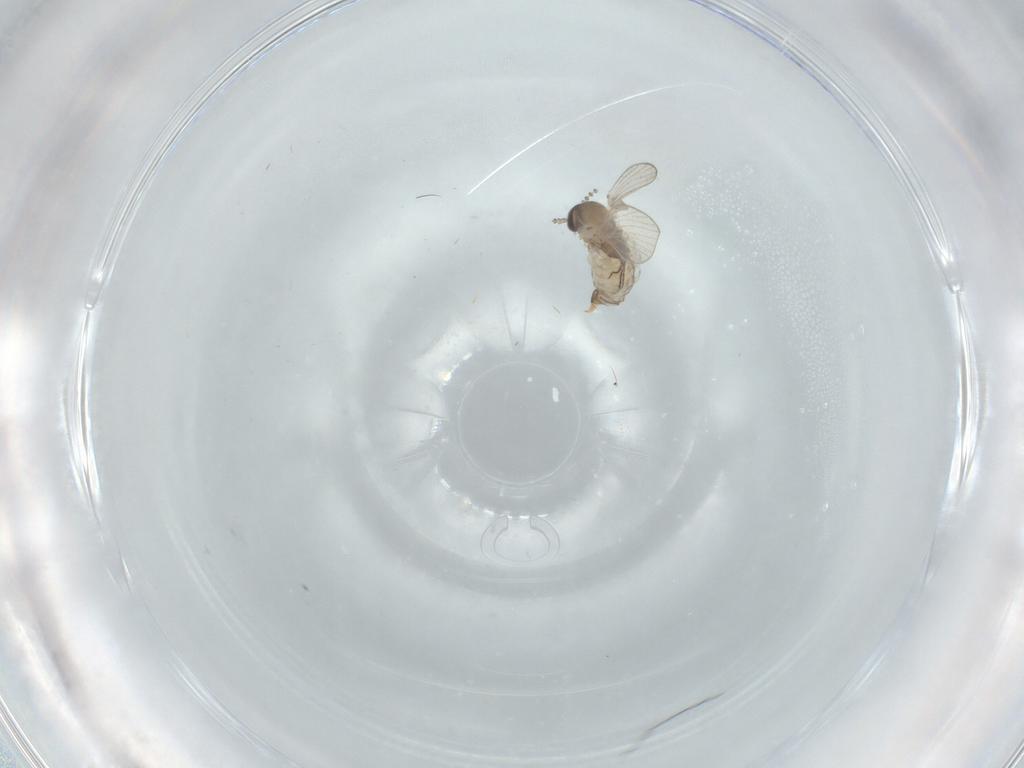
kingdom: Animalia
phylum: Arthropoda
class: Insecta
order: Diptera
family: Psychodidae
